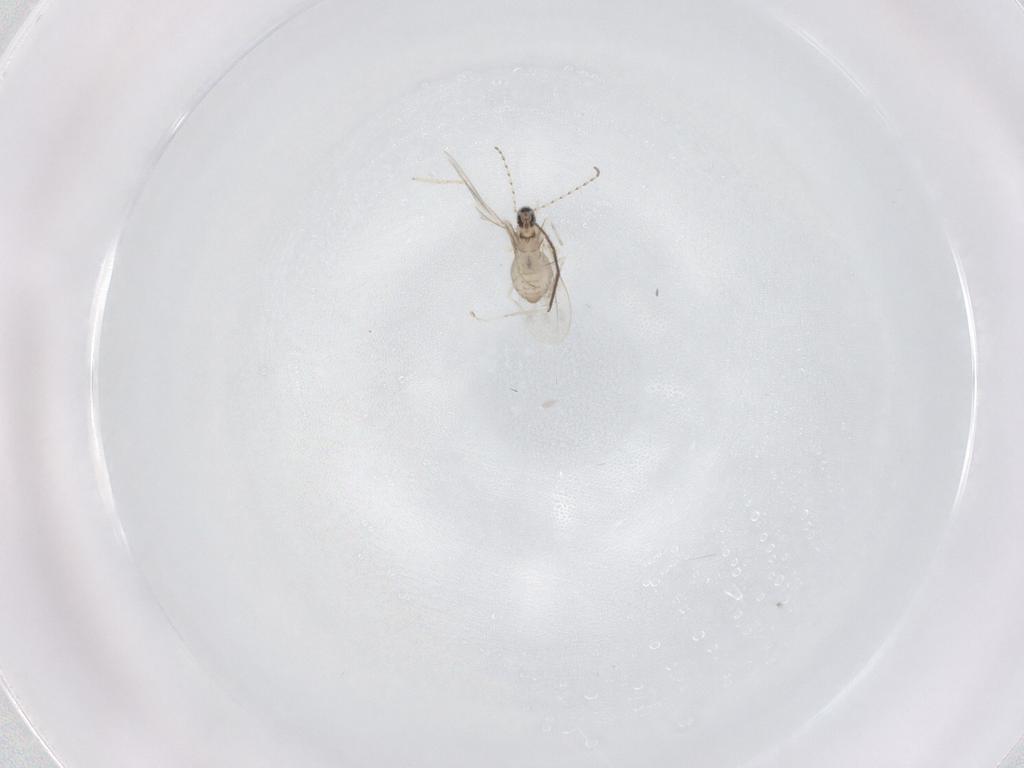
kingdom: Animalia
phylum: Arthropoda
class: Insecta
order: Diptera
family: Chironomidae
